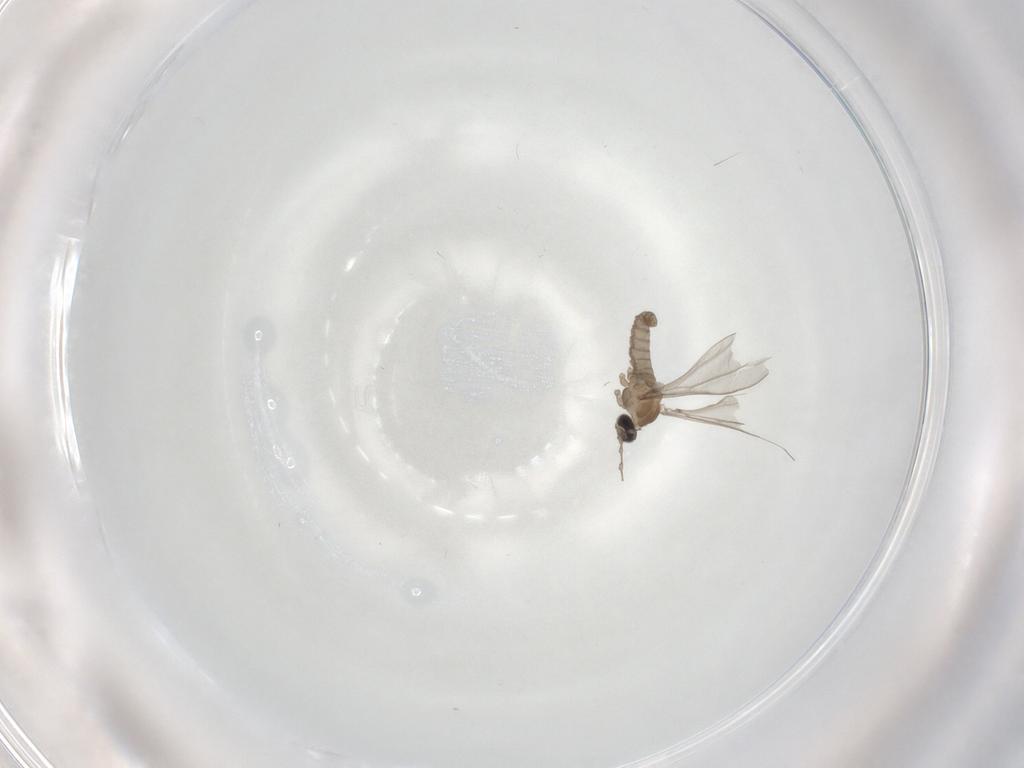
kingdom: Animalia
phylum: Arthropoda
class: Insecta
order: Diptera
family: Cecidomyiidae
